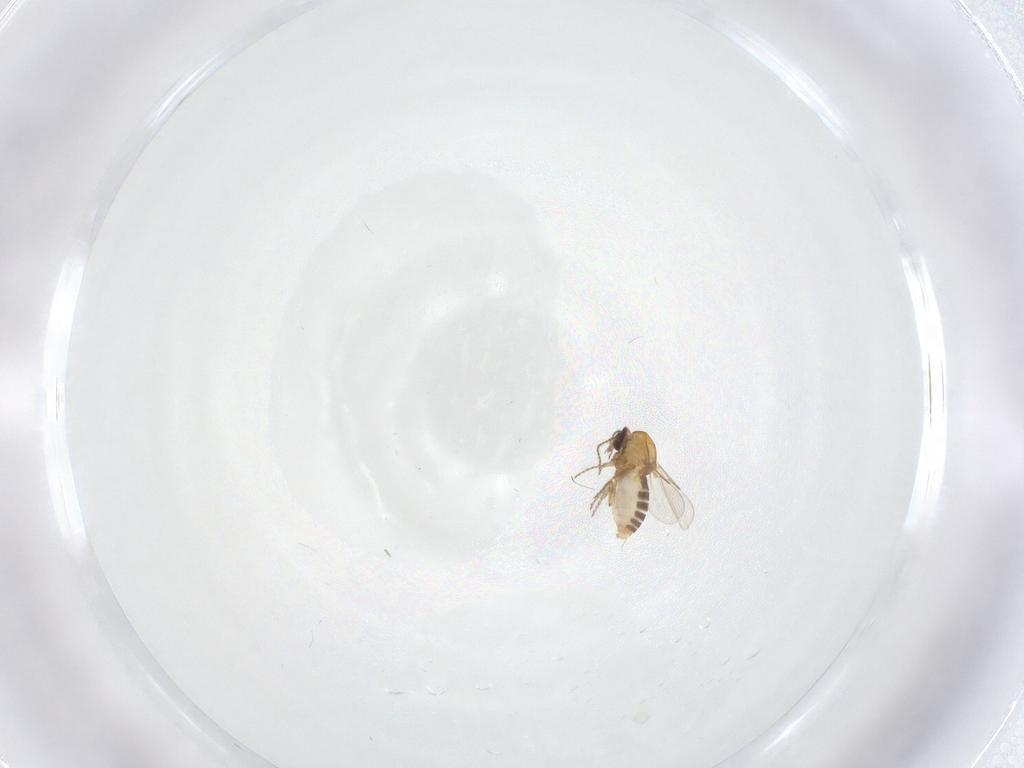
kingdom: Animalia
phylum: Arthropoda
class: Insecta
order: Diptera
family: Ceratopogonidae
